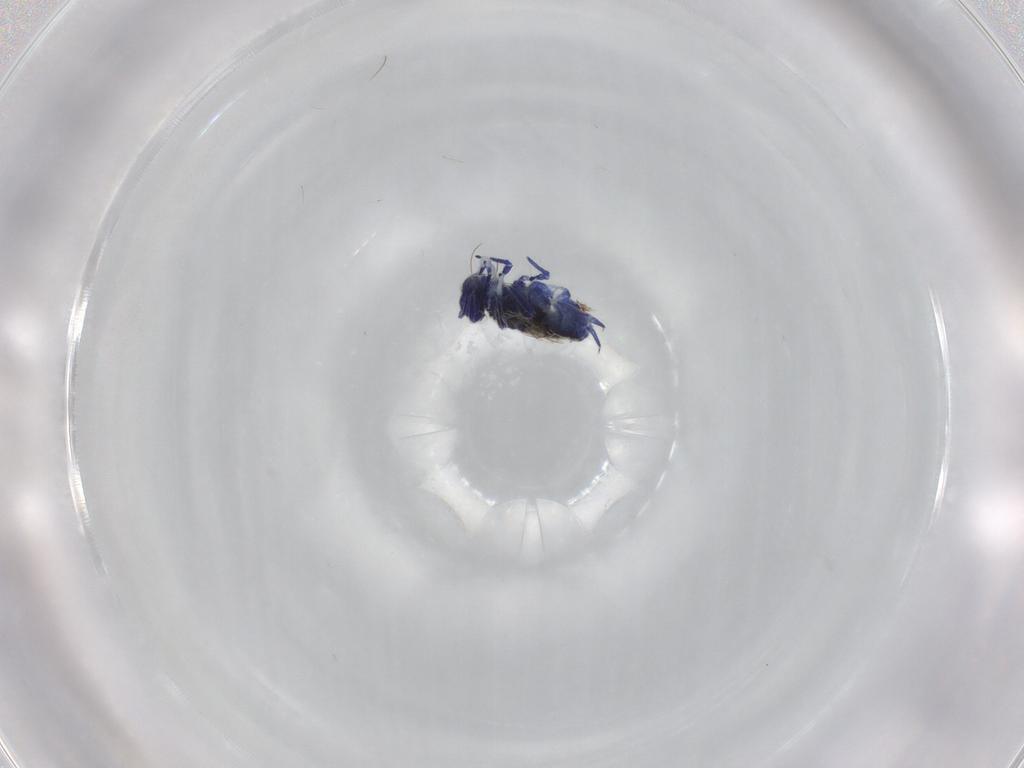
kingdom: Animalia
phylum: Arthropoda
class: Collembola
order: Symphypleona
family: Sminthurididae
